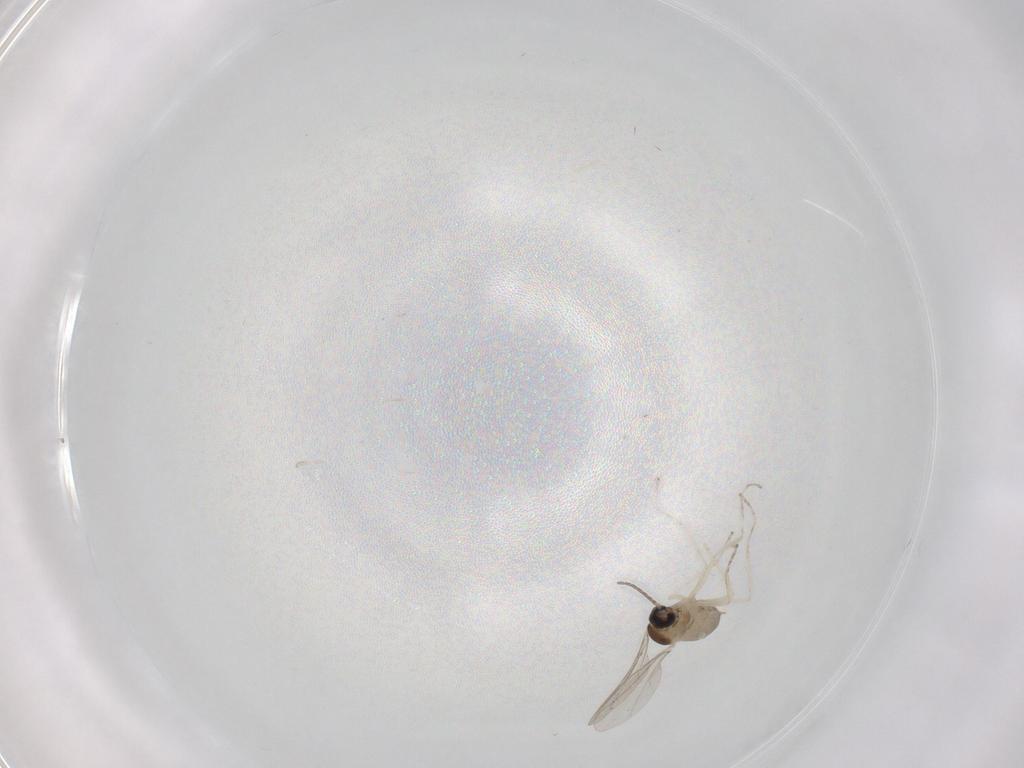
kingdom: Animalia
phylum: Arthropoda
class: Insecta
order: Diptera
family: Cecidomyiidae
